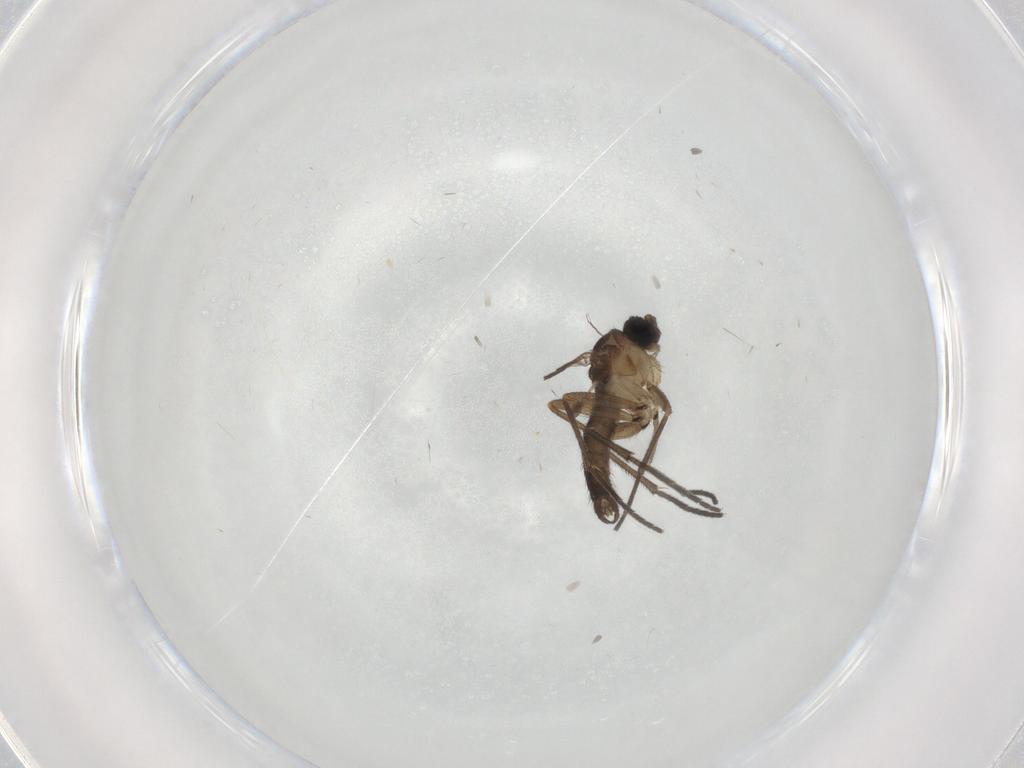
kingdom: Animalia
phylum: Arthropoda
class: Insecta
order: Diptera
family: Sciaridae
